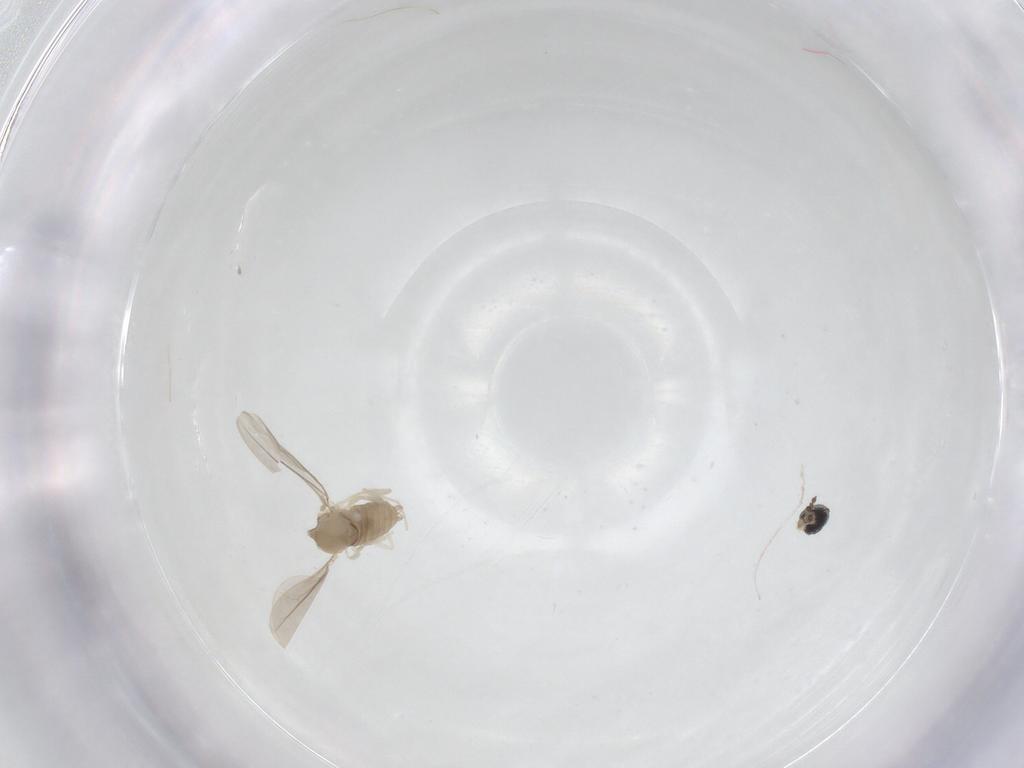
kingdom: Animalia
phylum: Arthropoda
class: Insecta
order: Diptera
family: Cecidomyiidae
